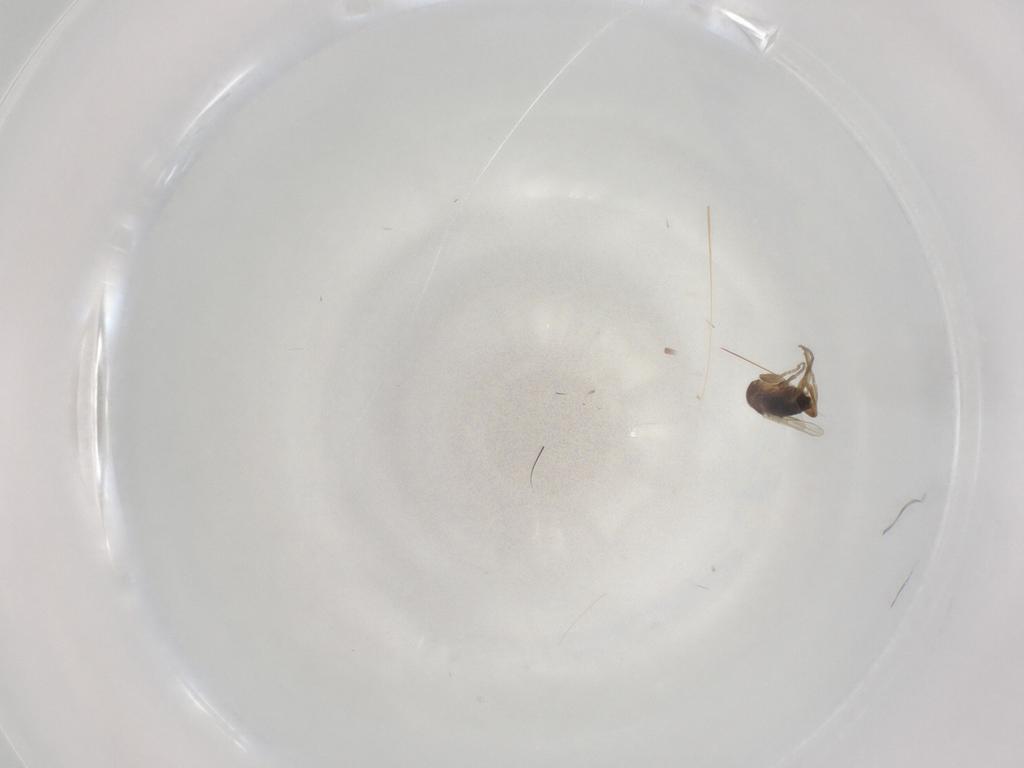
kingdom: Animalia
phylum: Arthropoda
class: Insecta
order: Diptera
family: Phoridae
